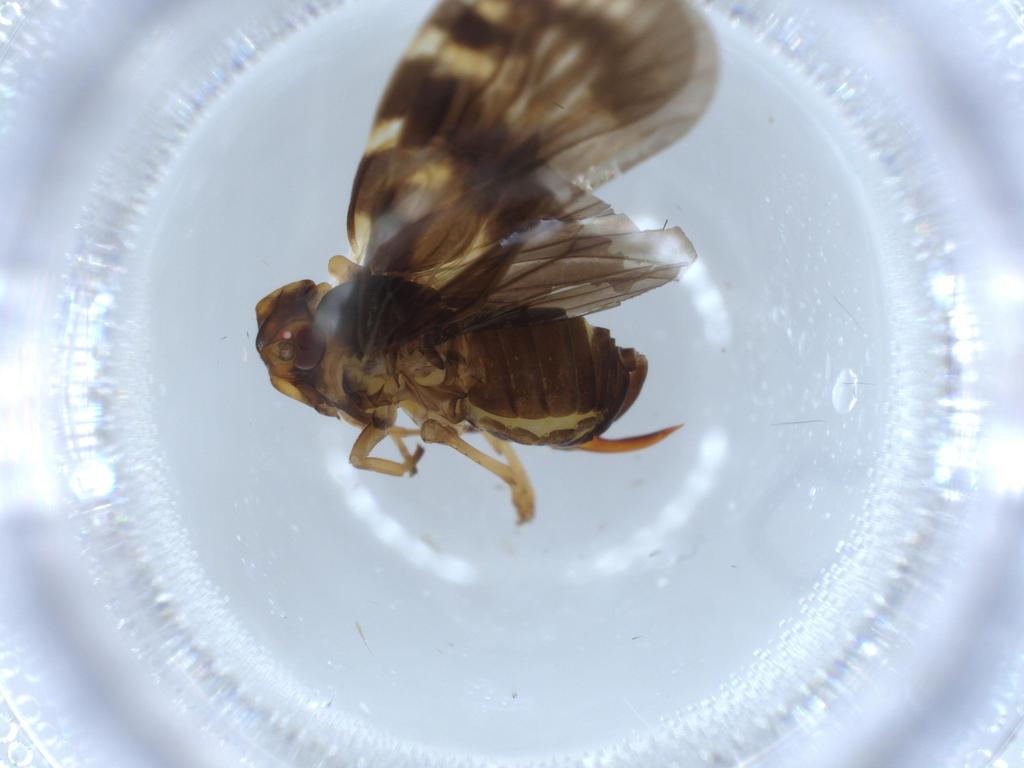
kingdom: Animalia
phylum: Arthropoda
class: Insecta
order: Hemiptera
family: Cixiidae
